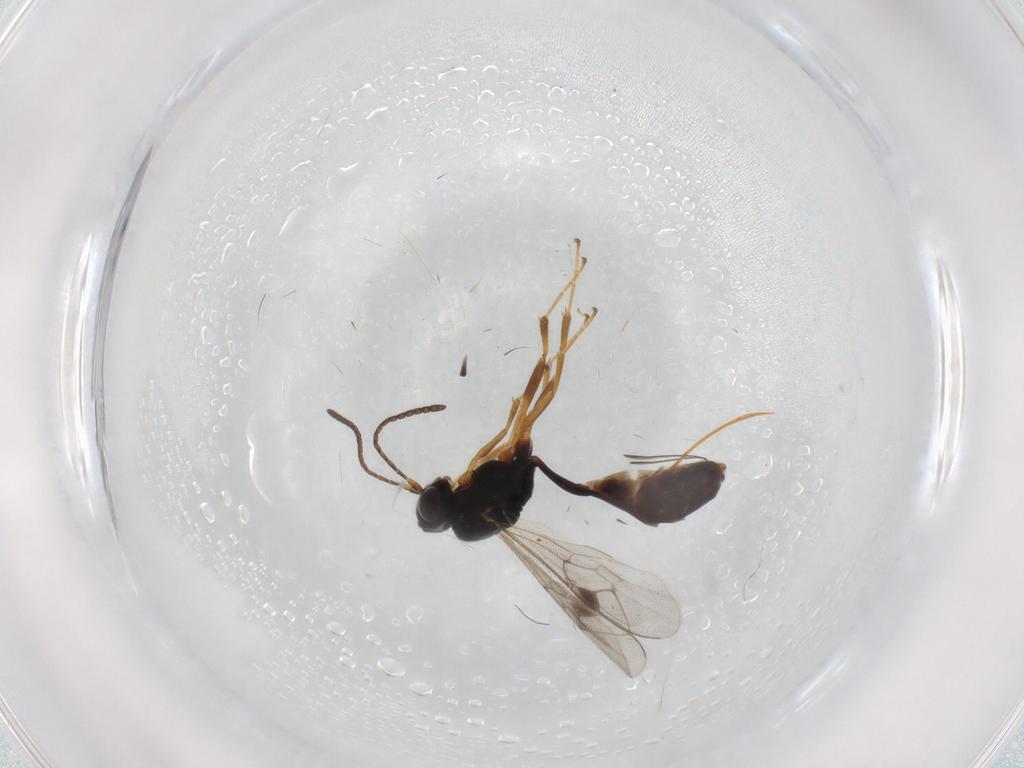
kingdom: Animalia
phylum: Arthropoda
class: Insecta
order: Hymenoptera
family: Ichneumonidae
